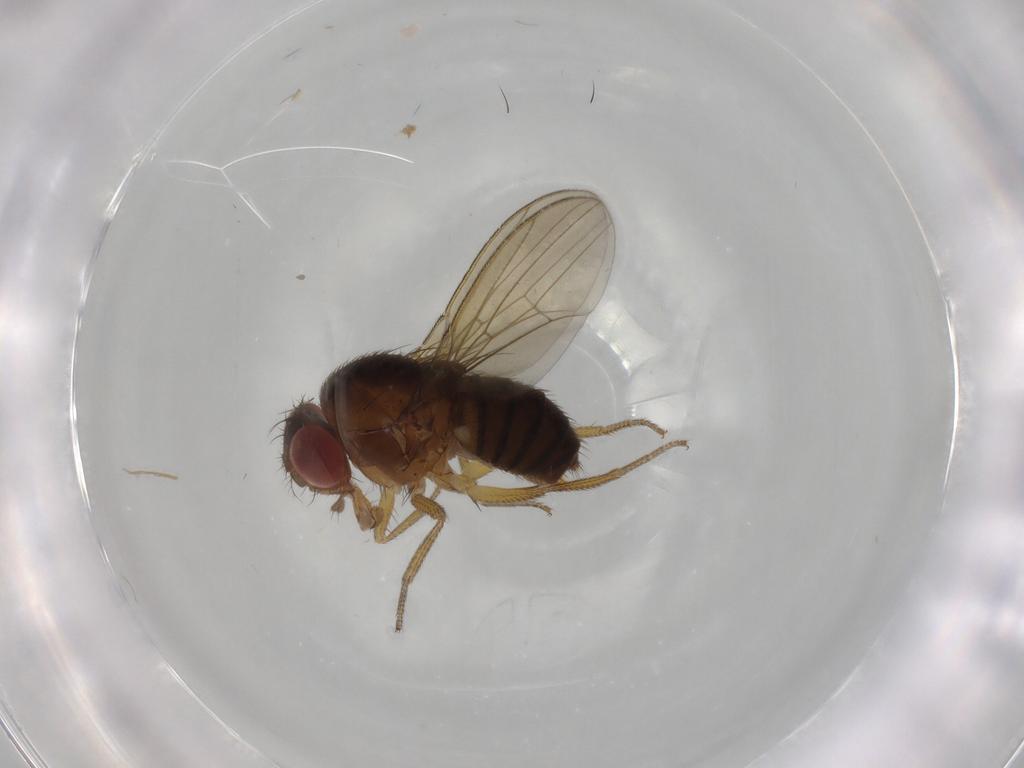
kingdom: Animalia
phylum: Arthropoda
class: Insecta
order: Diptera
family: Drosophilidae
